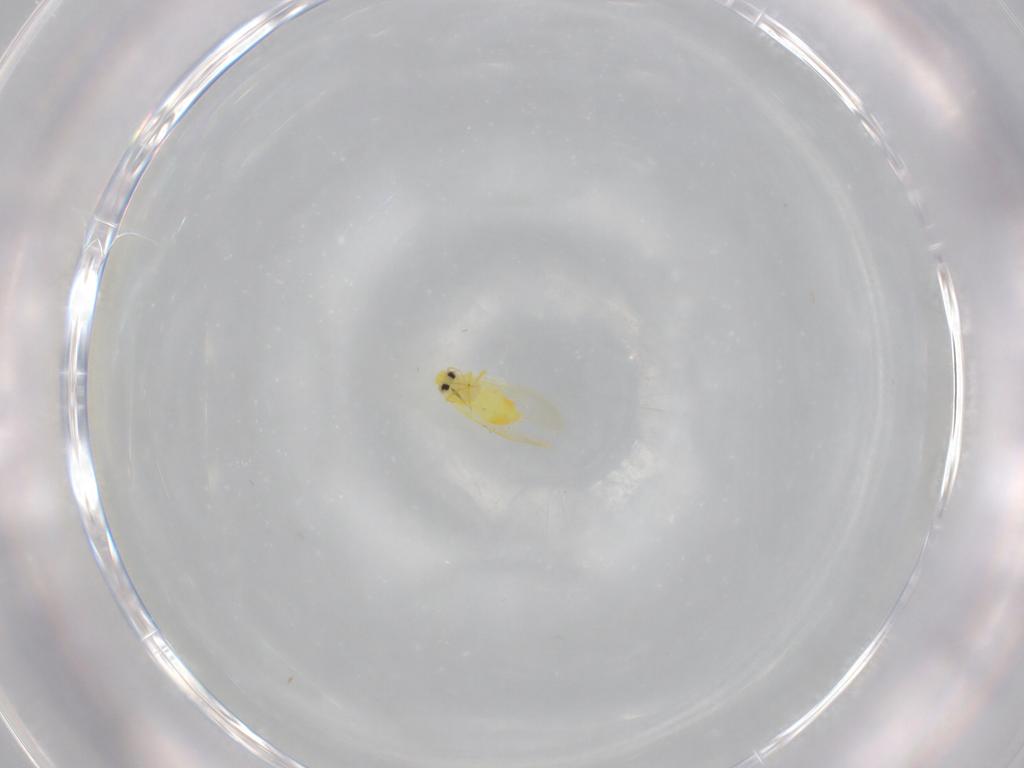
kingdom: Animalia
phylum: Arthropoda
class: Insecta
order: Hemiptera
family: Aleyrodidae
